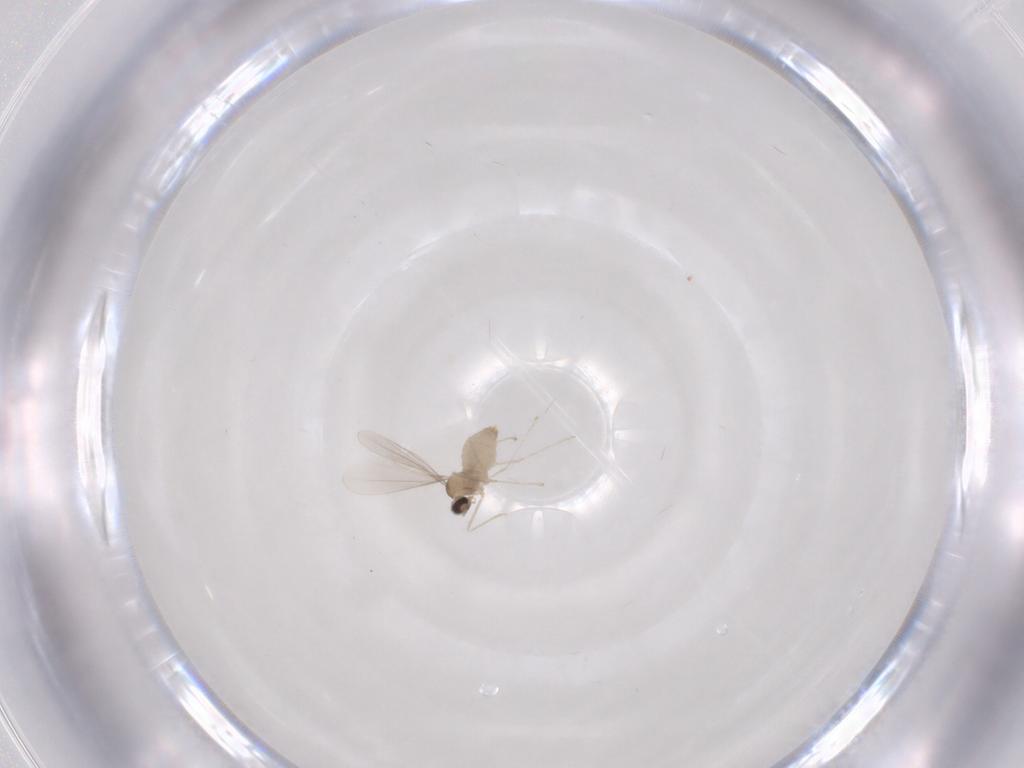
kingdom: Animalia
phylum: Arthropoda
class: Insecta
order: Diptera
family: Cecidomyiidae
